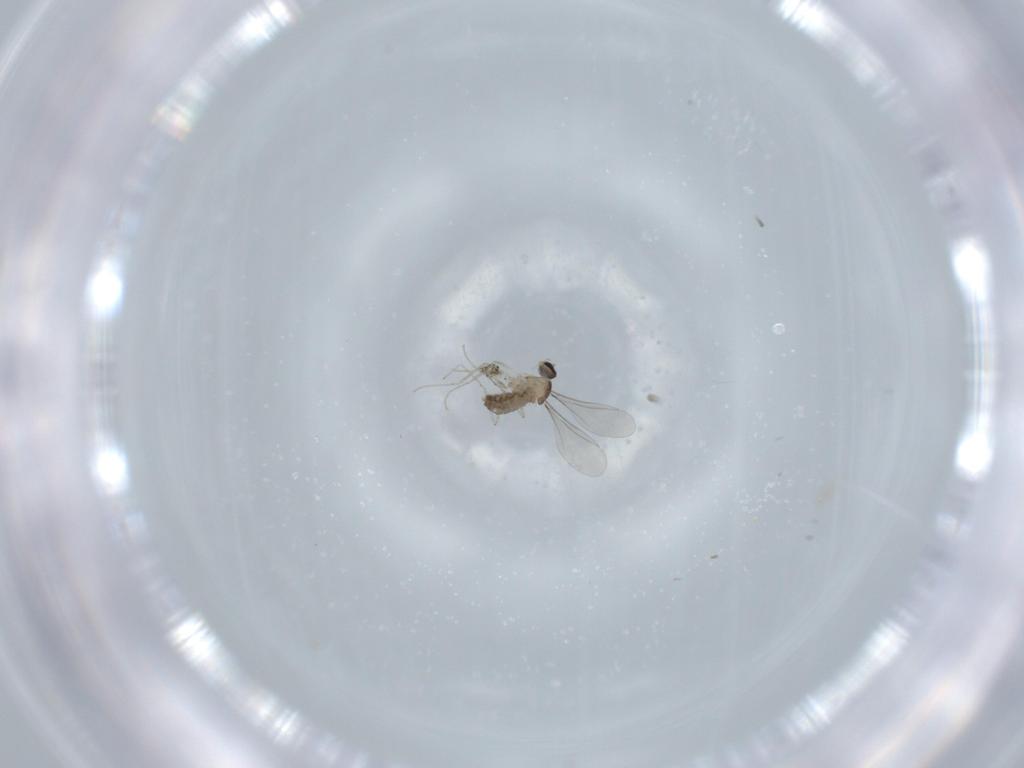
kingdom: Animalia
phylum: Arthropoda
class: Insecta
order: Diptera
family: Cecidomyiidae
